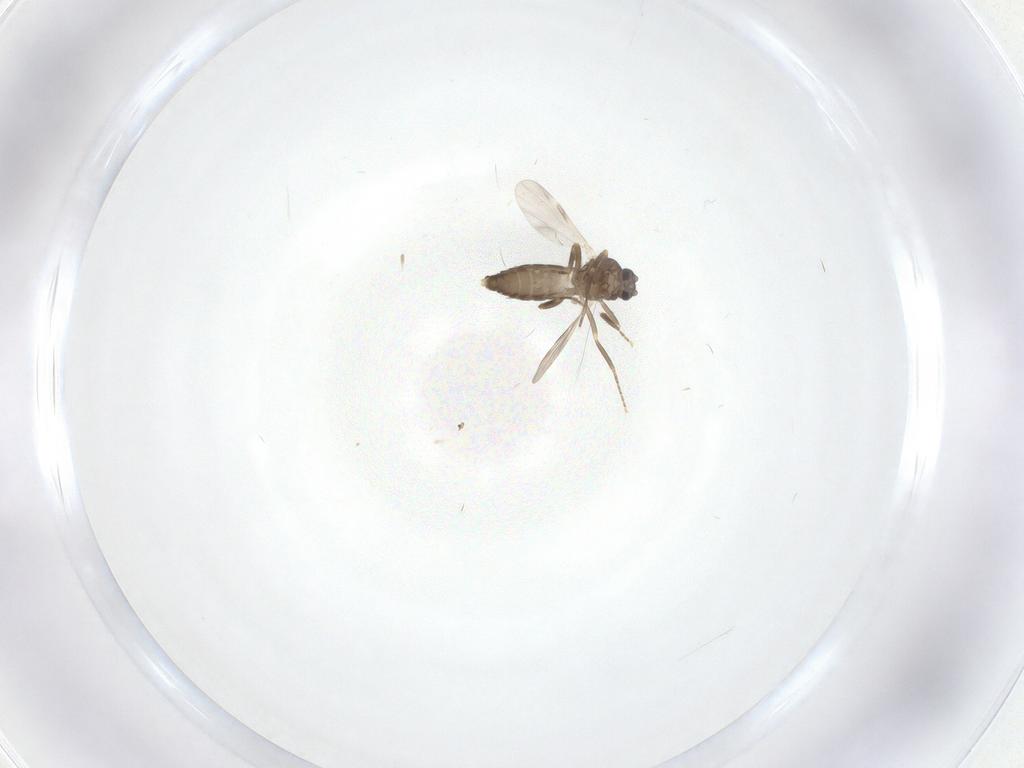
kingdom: Animalia
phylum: Arthropoda
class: Insecta
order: Diptera
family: Ceratopogonidae
